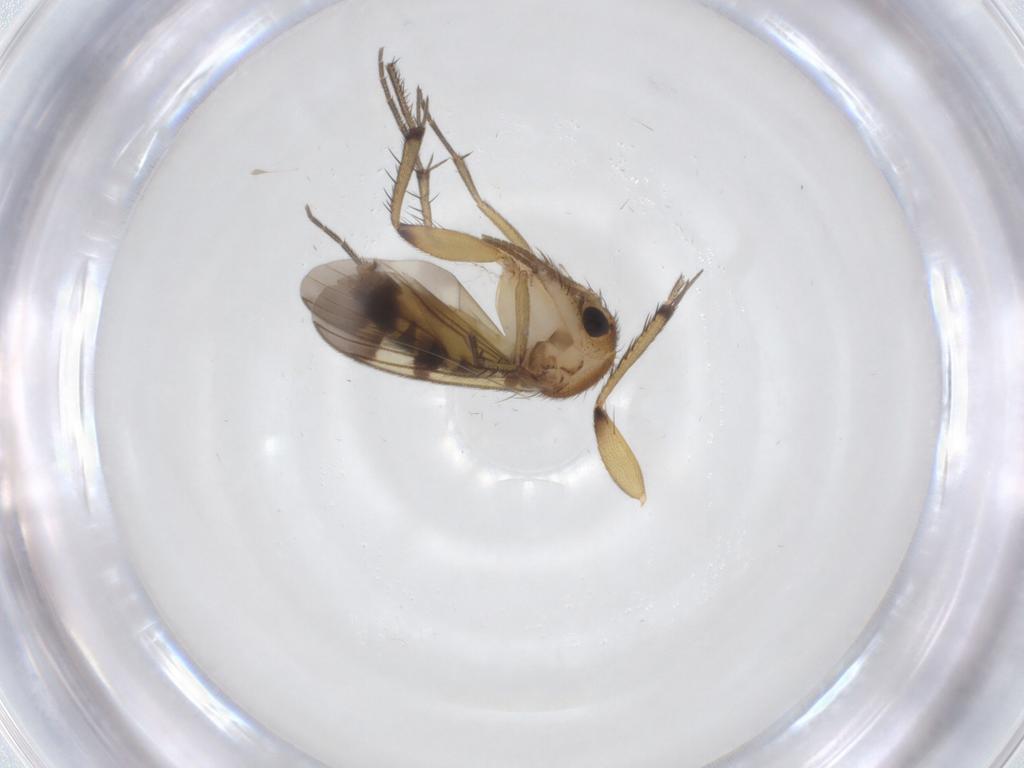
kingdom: Animalia
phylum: Arthropoda
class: Insecta
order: Diptera
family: Mycetophilidae
